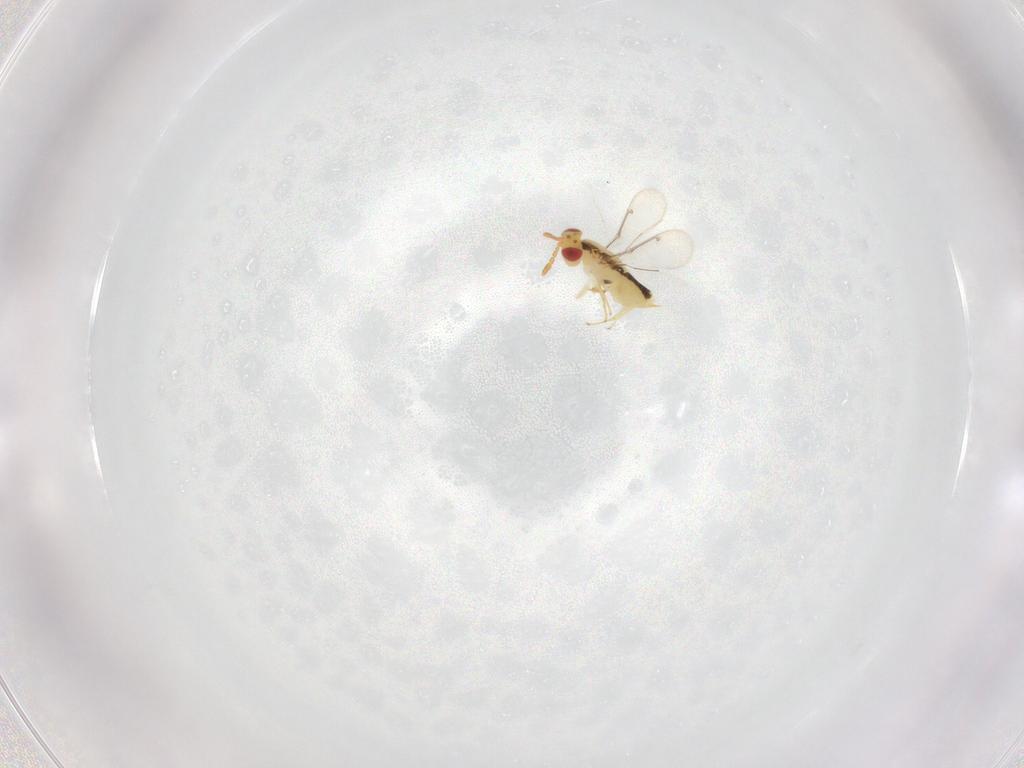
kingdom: Animalia
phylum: Arthropoda
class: Insecta
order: Hymenoptera
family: Mymaridae
